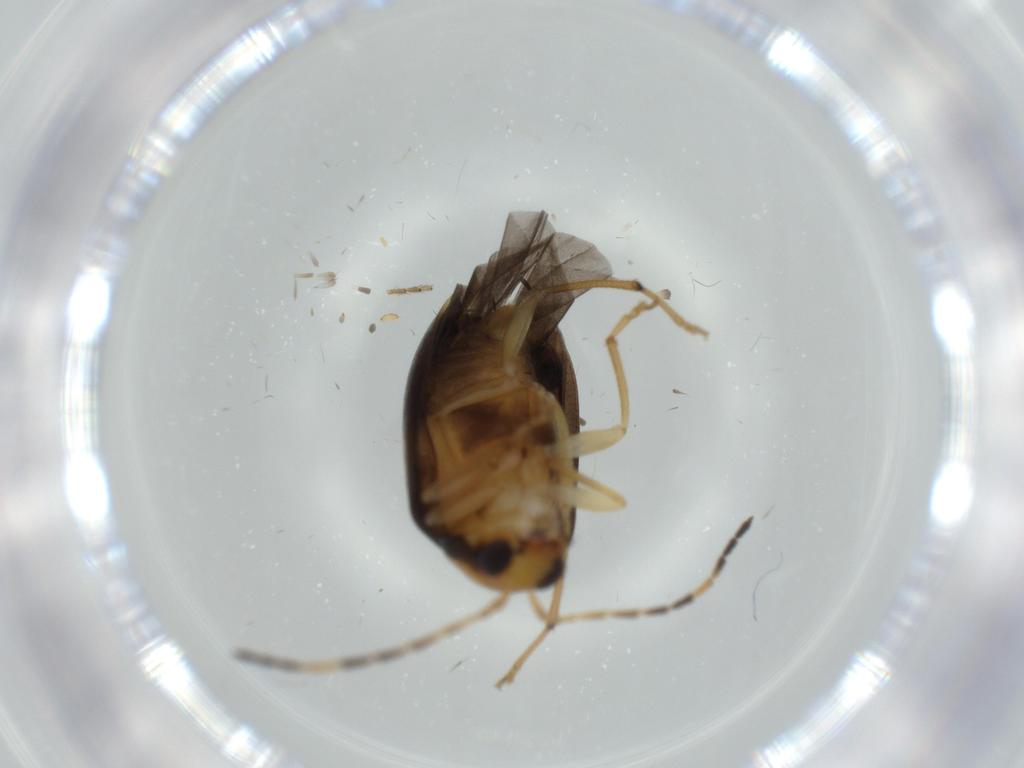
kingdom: Animalia
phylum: Arthropoda
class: Insecta
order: Coleoptera
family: Chrysomelidae
